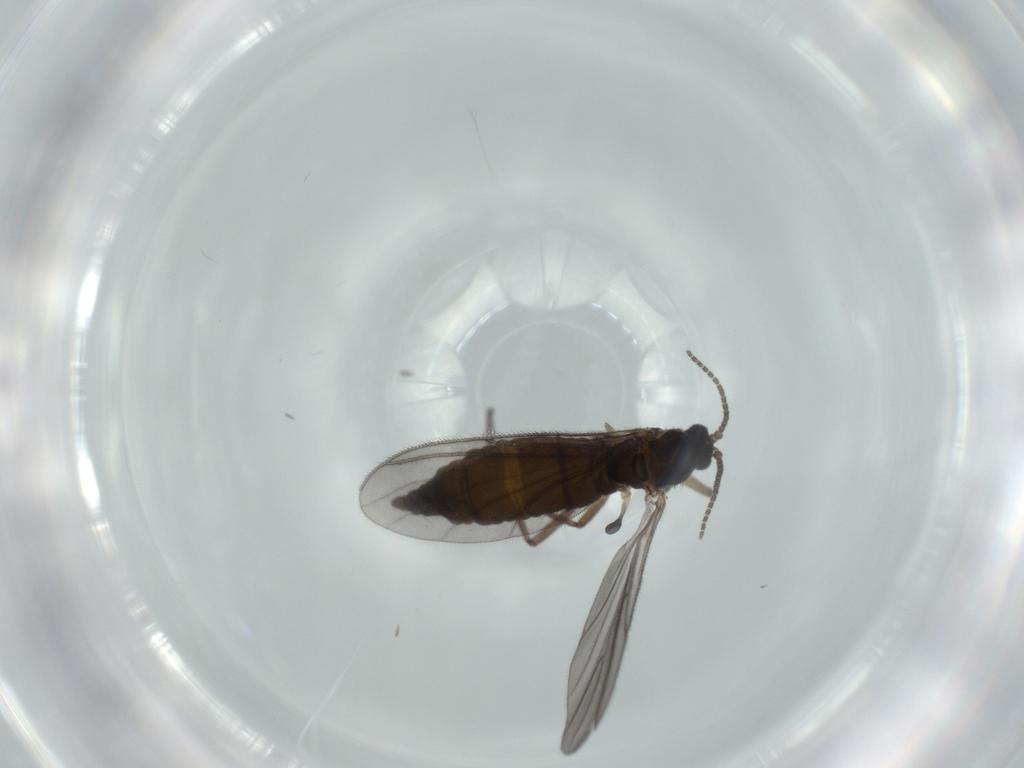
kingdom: Animalia
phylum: Arthropoda
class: Insecta
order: Diptera
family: Sciaridae
